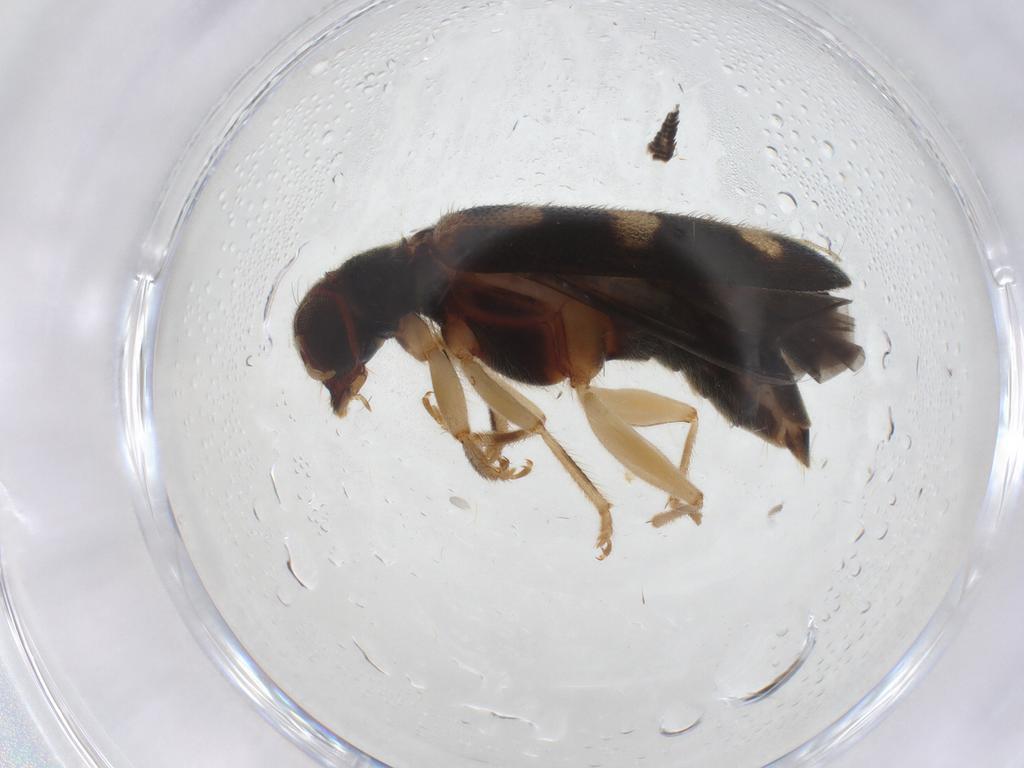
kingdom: Animalia
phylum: Arthropoda
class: Insecta
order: Coleoptera
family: Cleridae
